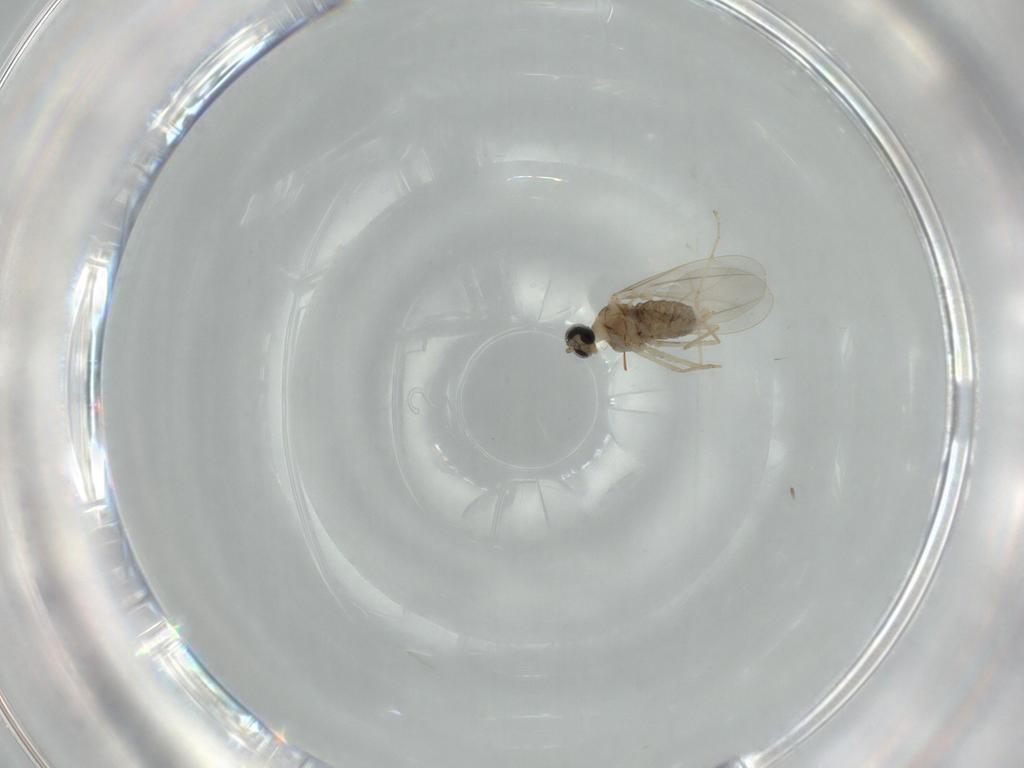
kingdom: Animalia
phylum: Arthropoda
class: Insecta
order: Diptera
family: Cecidomyiidae
